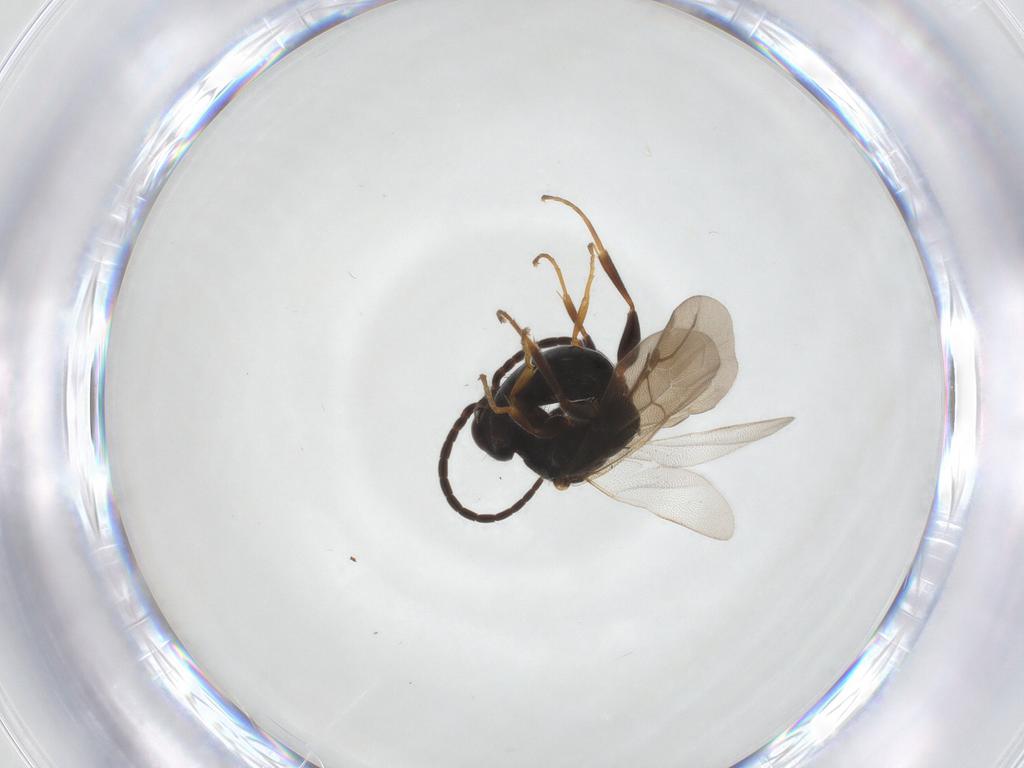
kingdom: Animalia
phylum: Arthropoda
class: Insecta
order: Hymenoptera
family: Bethylidae
